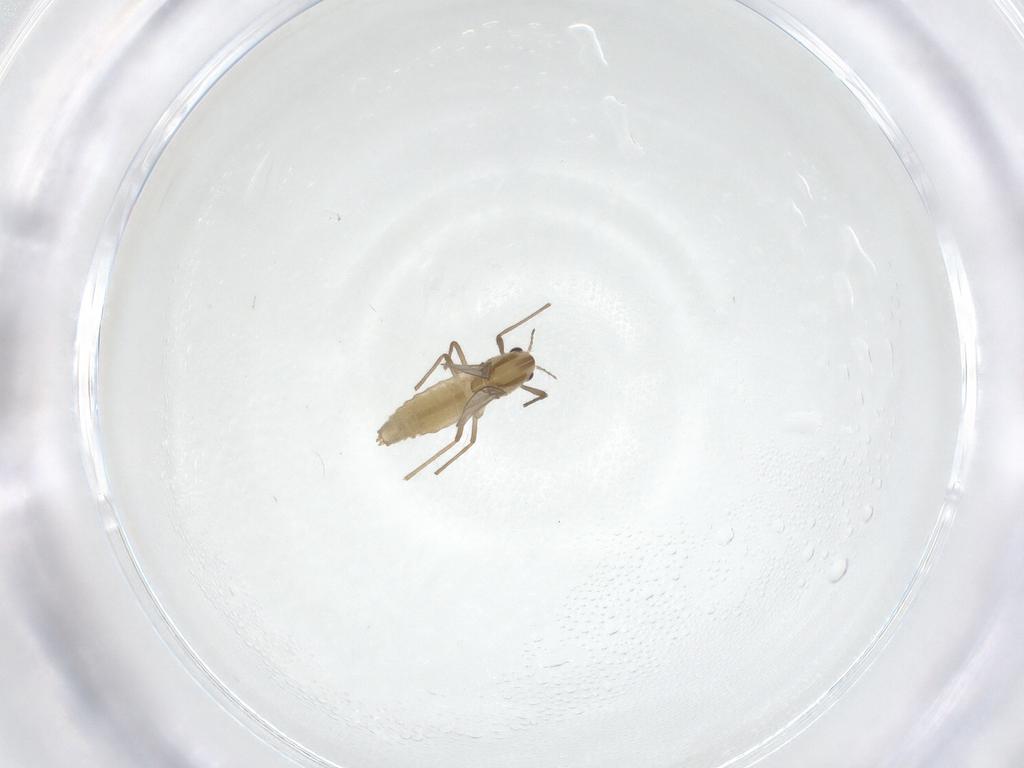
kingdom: Animalia
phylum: Arthropoda
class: Insecta
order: Diptera
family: Chironomidae
